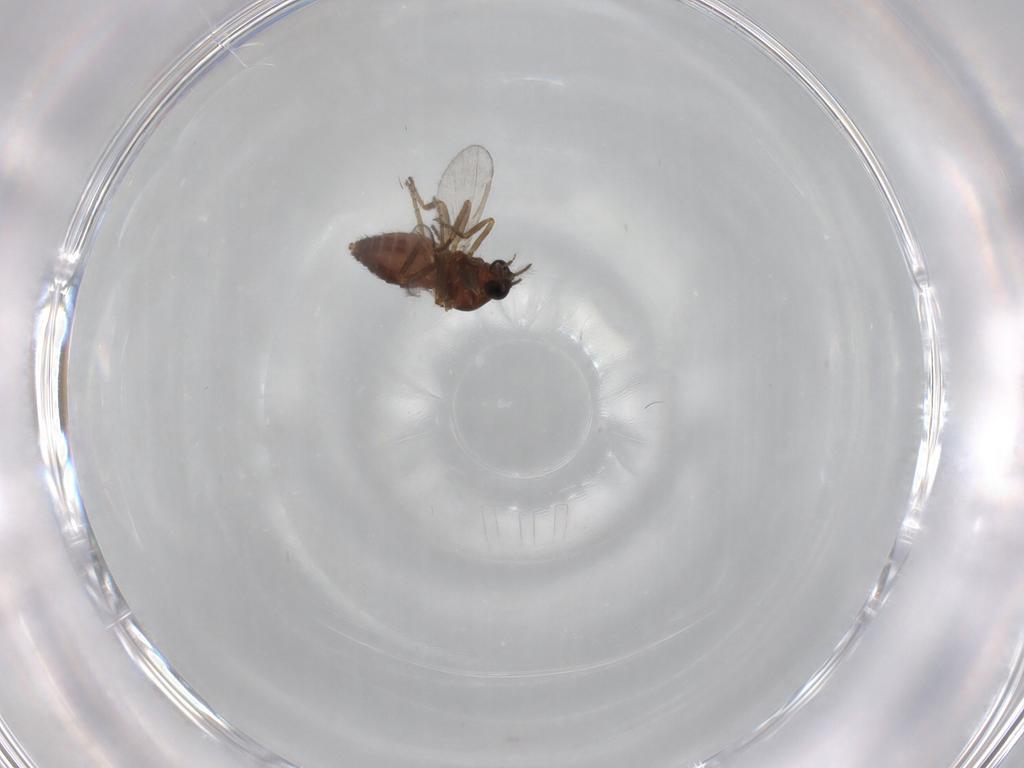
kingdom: Animalia
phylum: Arthropoda
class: Insecta
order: Diptera
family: Ceratopogonidae
